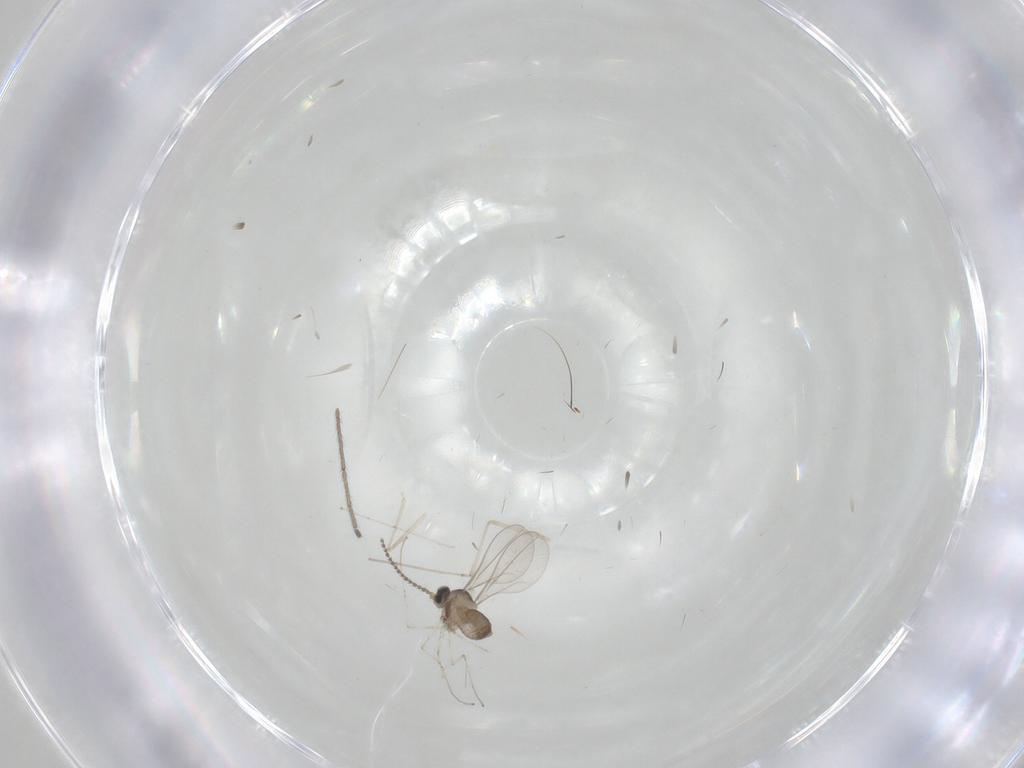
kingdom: Animalia
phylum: Arthropoda
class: Insecta
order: Diptera
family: Cecidomyiidae
